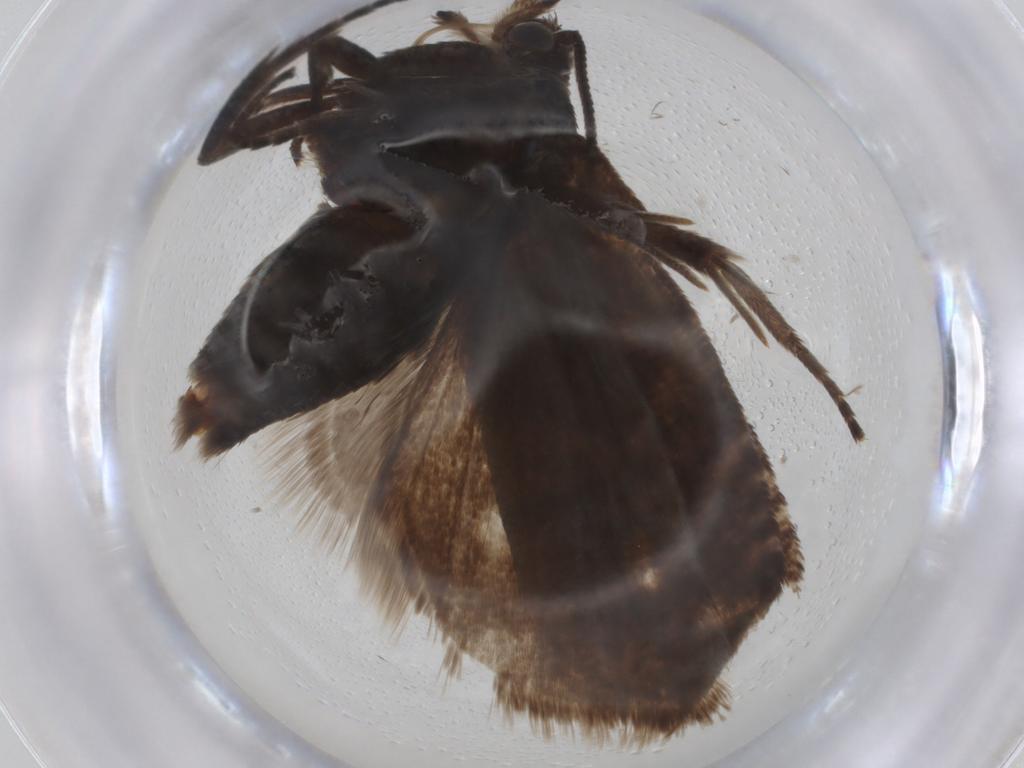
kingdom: Animalia
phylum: Arthropoda
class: Insecta
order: Lepidoptera
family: Tortricidae
